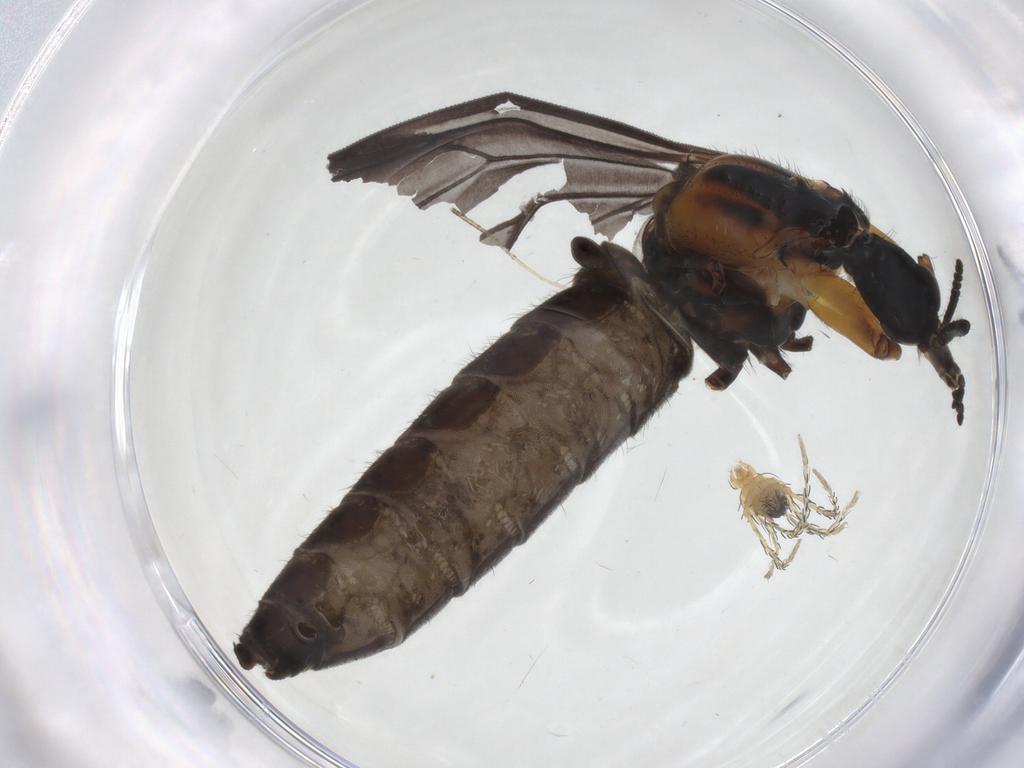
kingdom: Animalia
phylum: Arthropoda
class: Insecta
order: Diptera
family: Bibionidae
